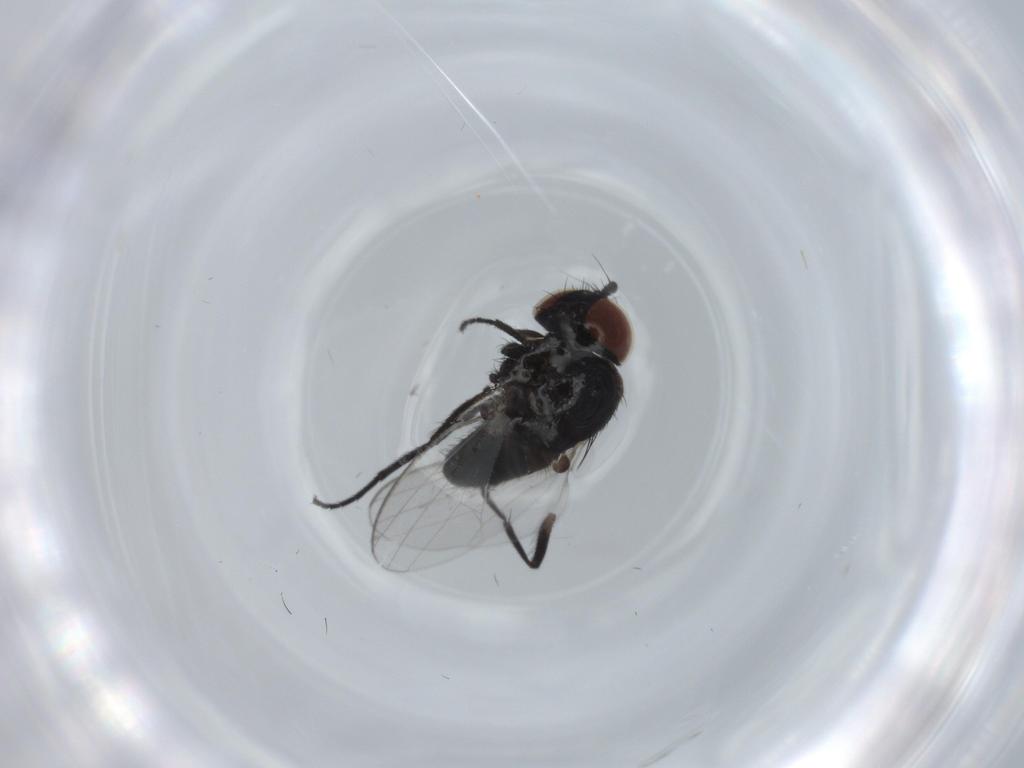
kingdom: Animalia
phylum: Arthropoda
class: Insecta
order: Diptera
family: Milichiidae
